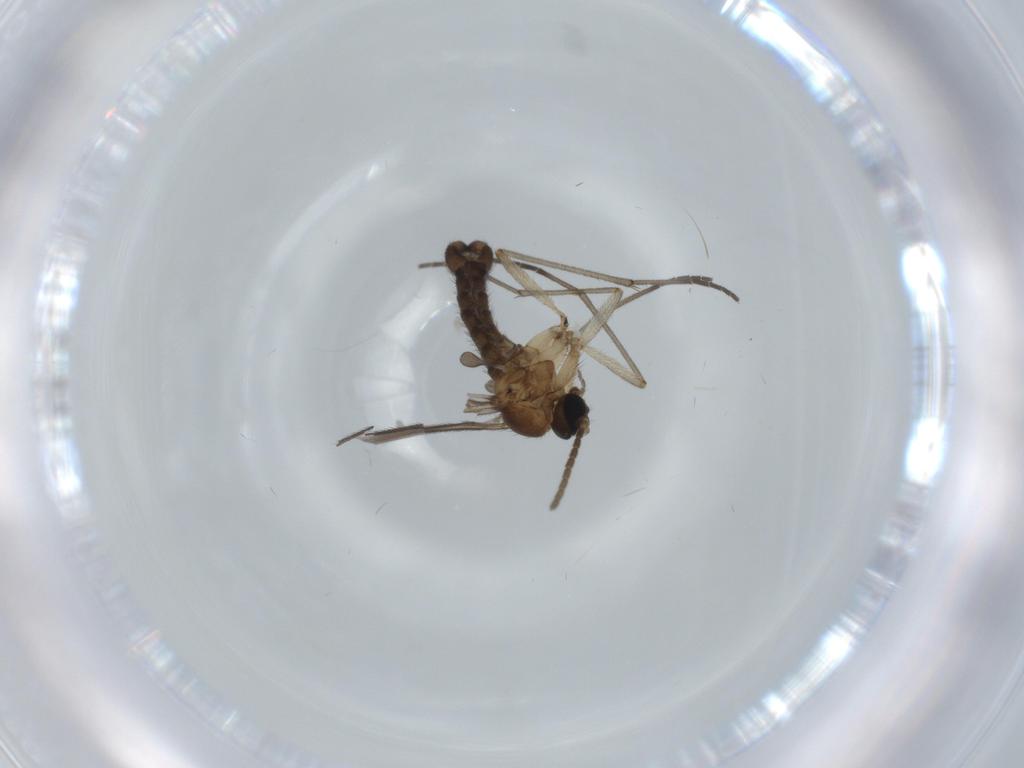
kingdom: Animalia
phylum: Arthropoda
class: Insecta
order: Diptera
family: Sciaridae
